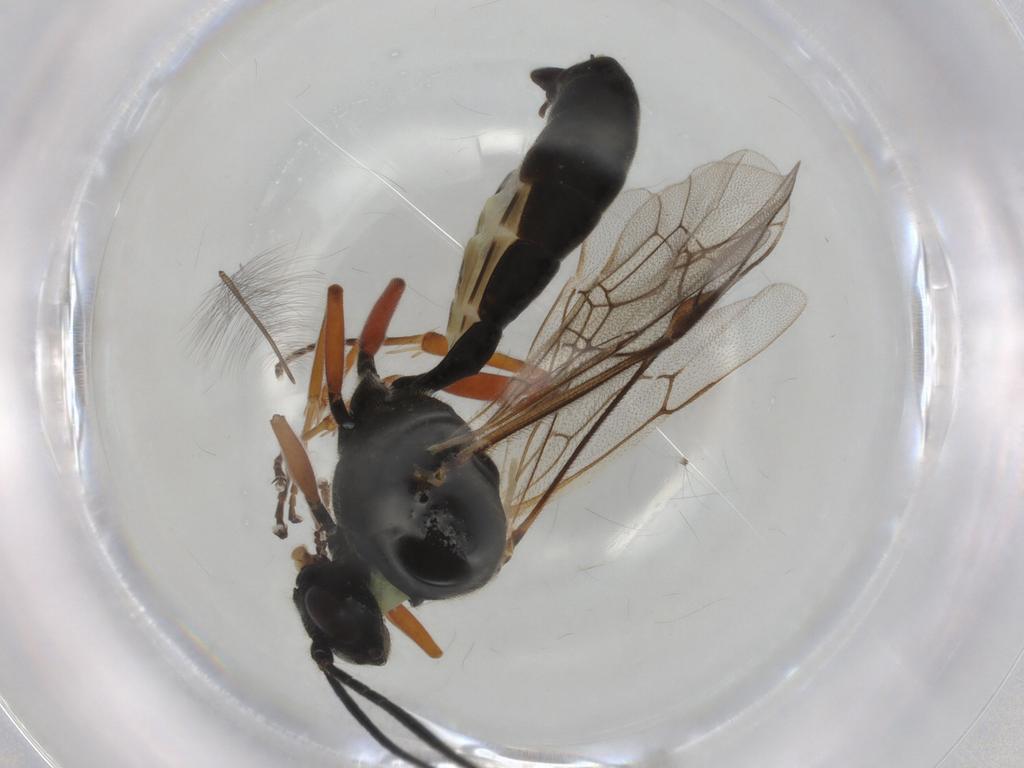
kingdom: Animalia
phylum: Arthropoda
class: Insecta
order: Hymenoptera
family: Ichneumonidae
